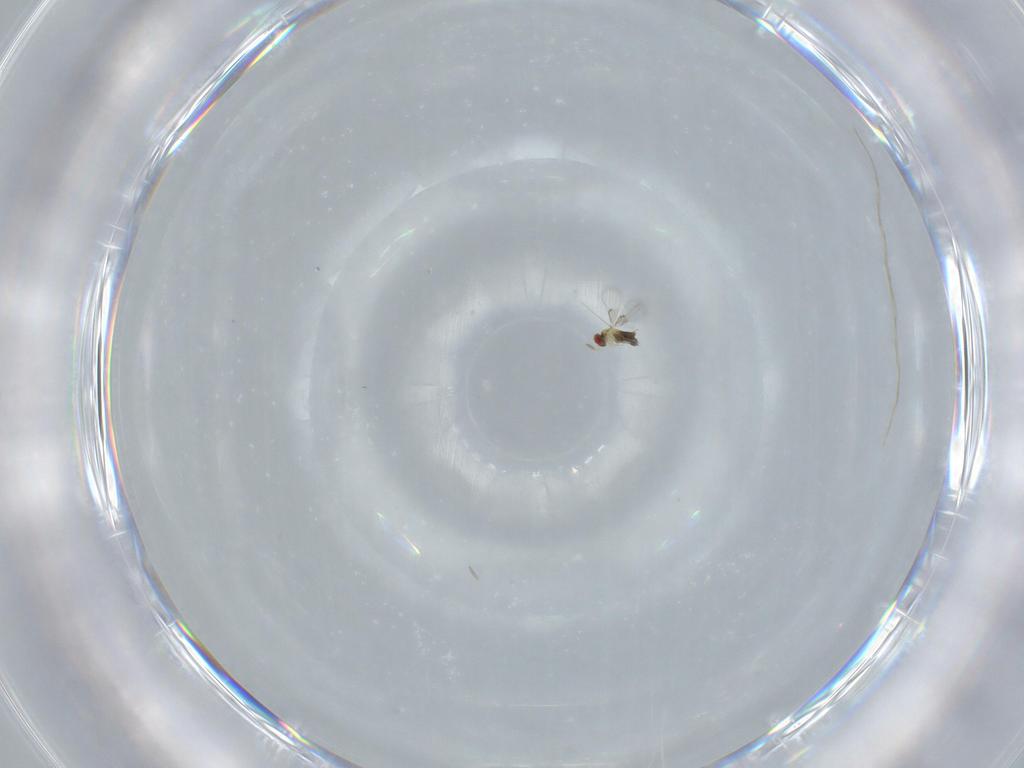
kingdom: Animalia
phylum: Arthropoda
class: Insecta
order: Hymenoptera
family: Trichogrammatidae
